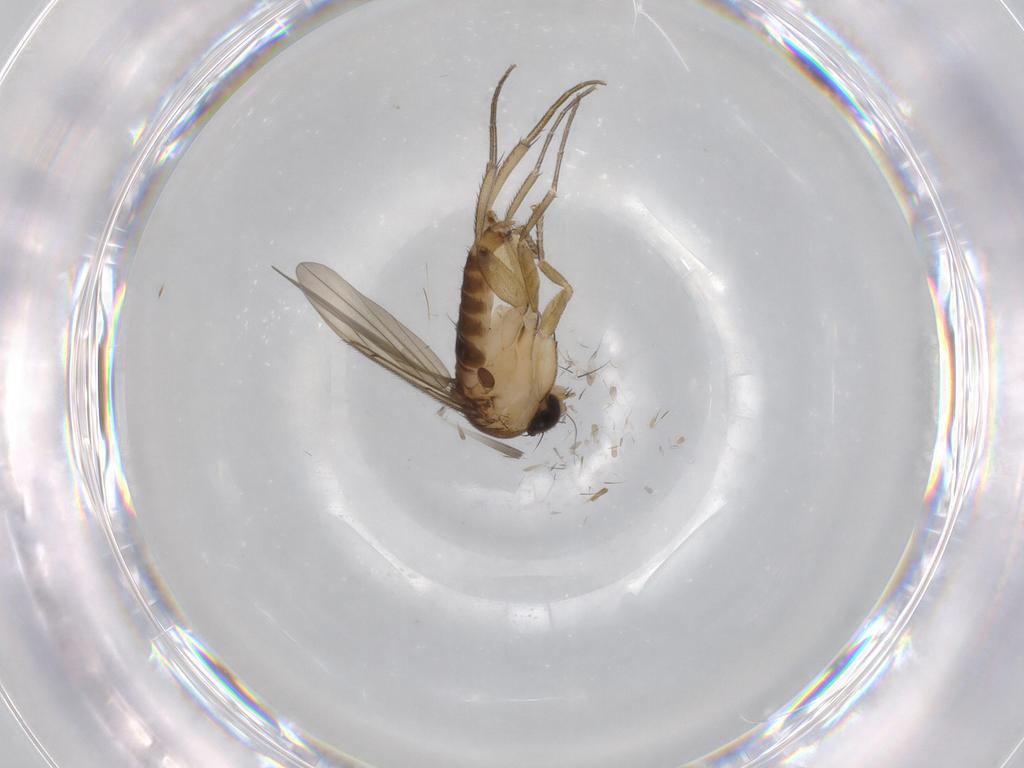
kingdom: Animalia
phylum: Arthropoda
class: Insecta
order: Diptera
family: Phoridae
